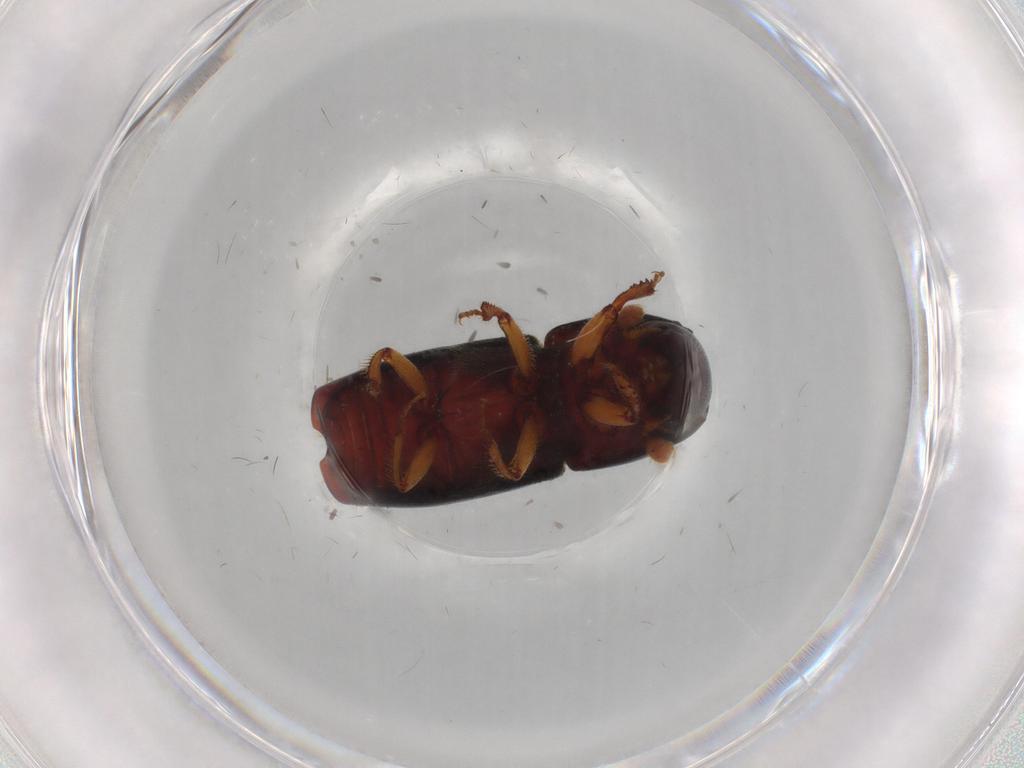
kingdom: Animalia
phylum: Arthropoda
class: Insecta
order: Coleoptera
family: Curculionidae
